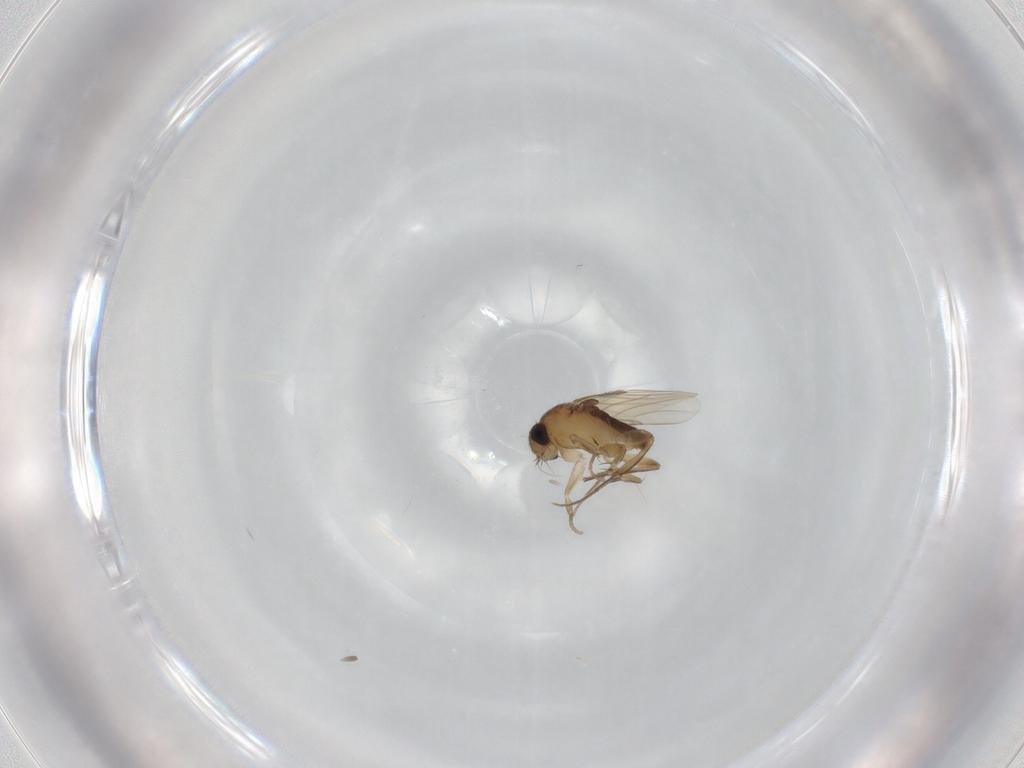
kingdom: Animalia
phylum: Arthropoda
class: Insecta
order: Diptera
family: Phoridae
